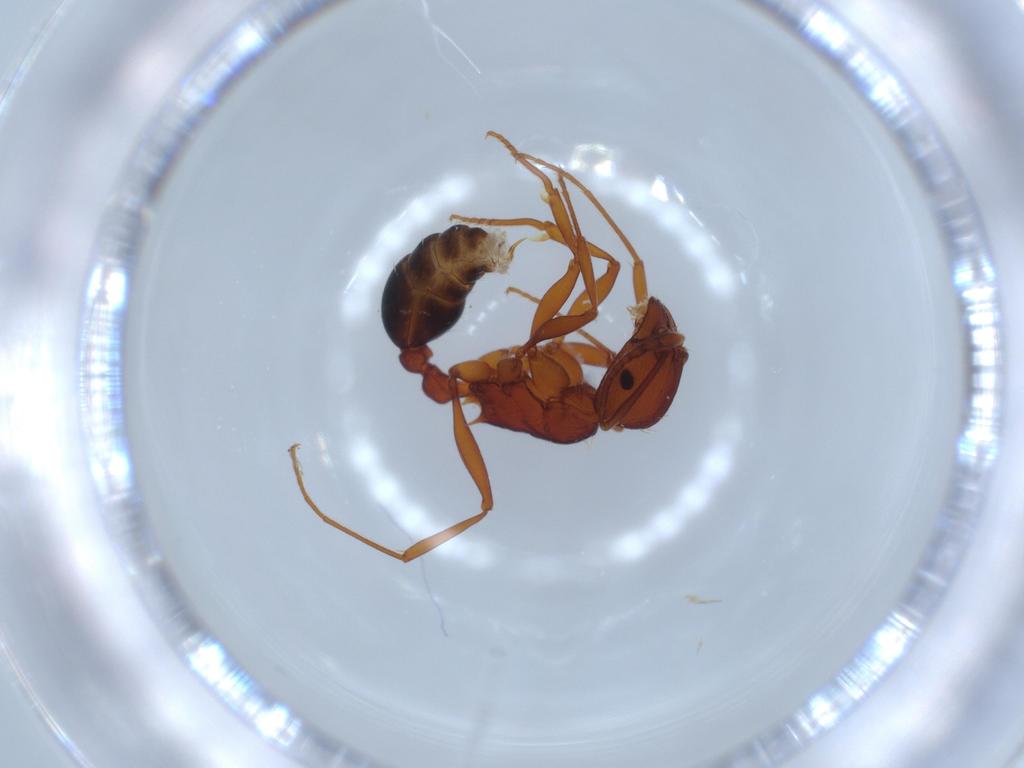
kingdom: Animalia
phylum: Arthropoda
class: Insecta
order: Hymenoptera
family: Formicidae
